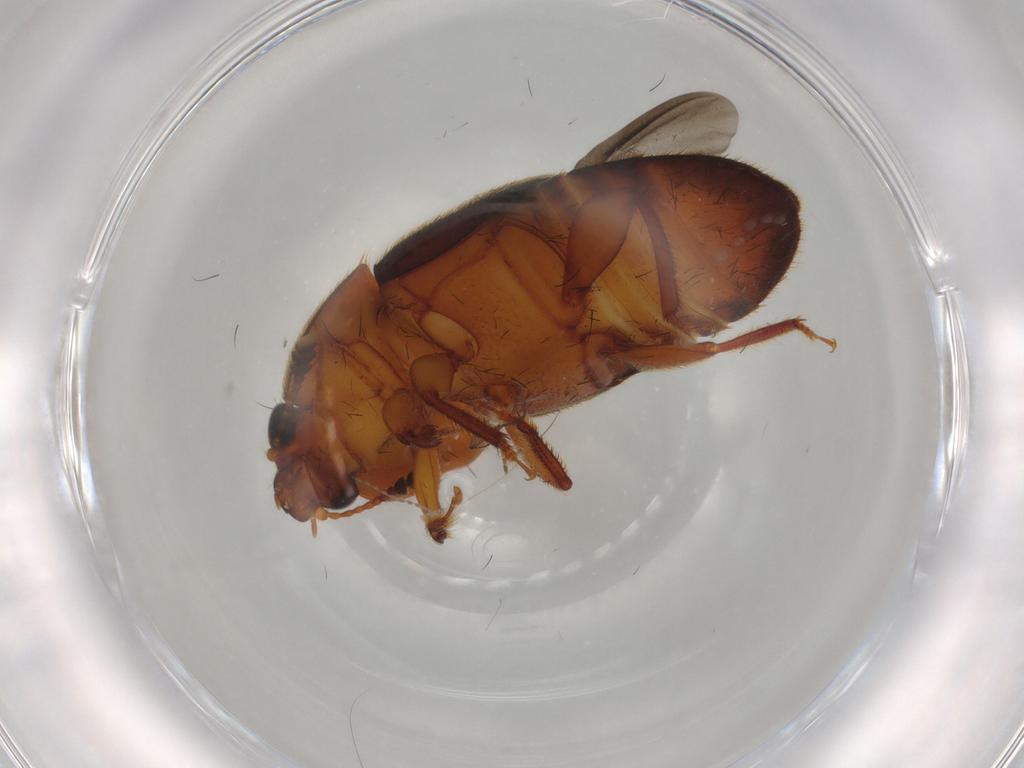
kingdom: Animalia
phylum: Arthropoda
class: Insecta
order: Coleoptera
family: Nitidulidae
